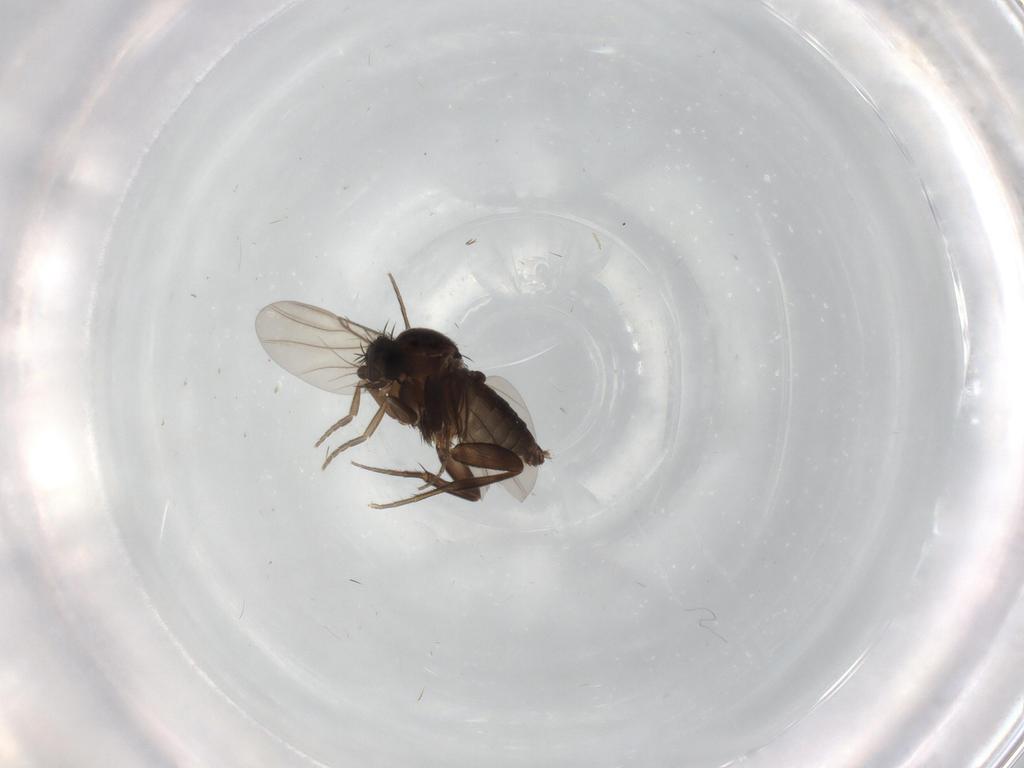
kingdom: Animalia
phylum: Arthropoda
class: Insecta
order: Diptera
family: Phoridae
